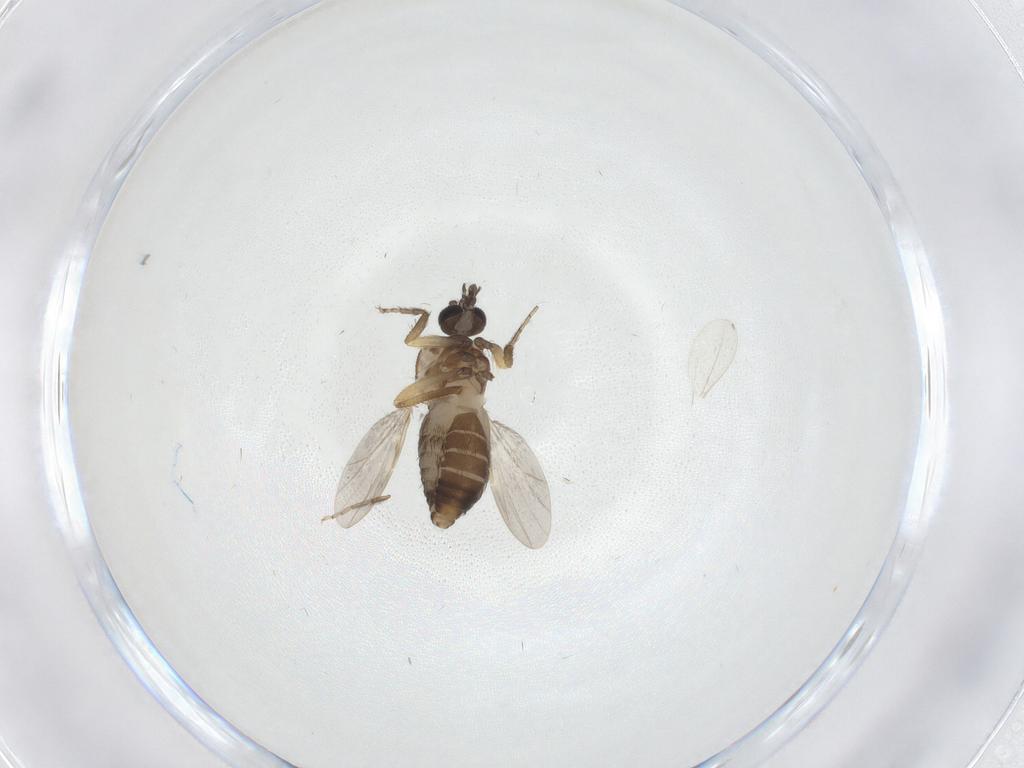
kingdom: Animalia
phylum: Arthropoda
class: Insecta
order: Diptera
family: Ceratopogonidae
